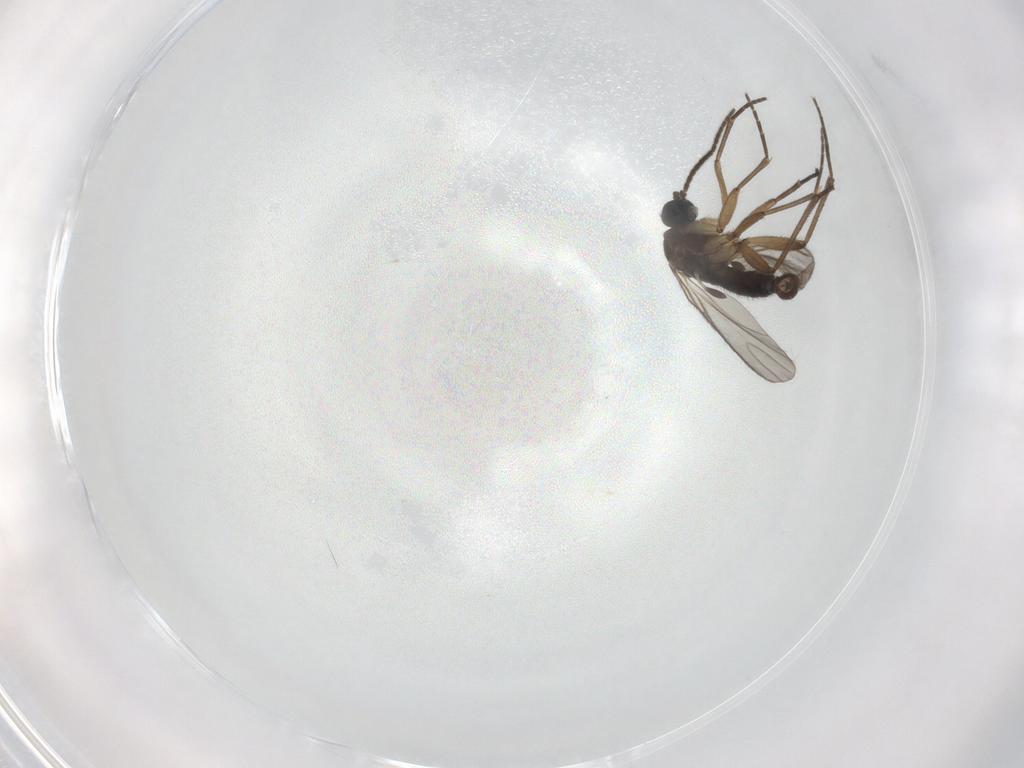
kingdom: Animalia
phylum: Arthropoda
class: Insecta
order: Diptera
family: Sciaridae
